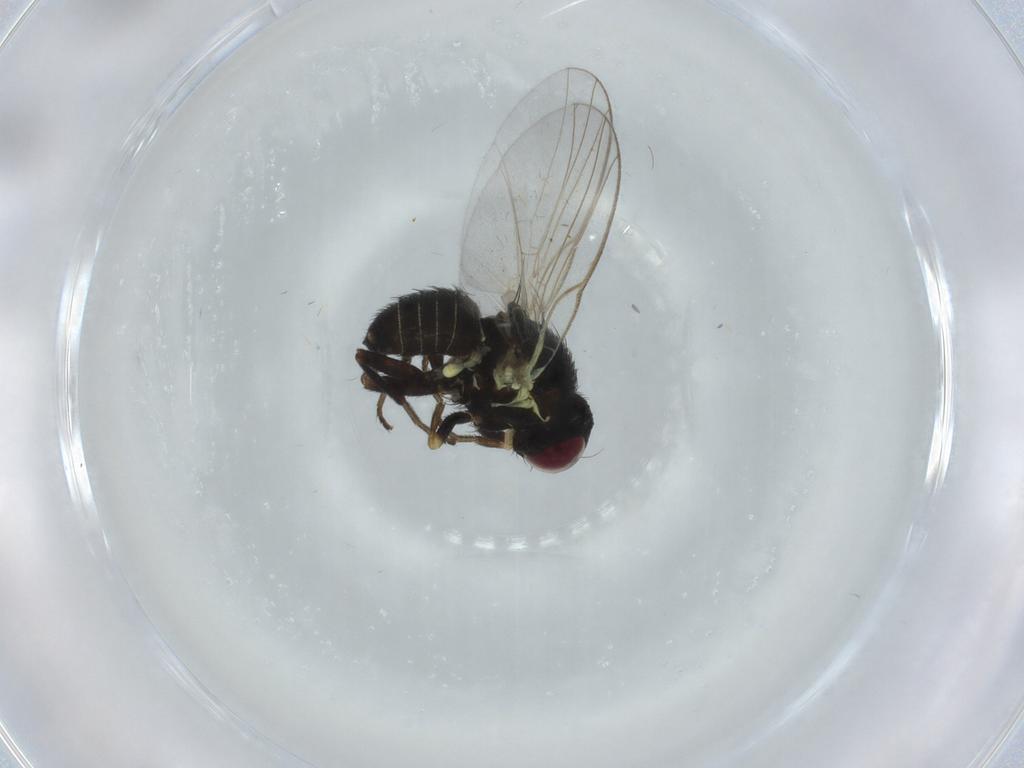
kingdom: Animalia
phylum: Arthropoda
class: Insecta
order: Diptera
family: Agromyzidae
